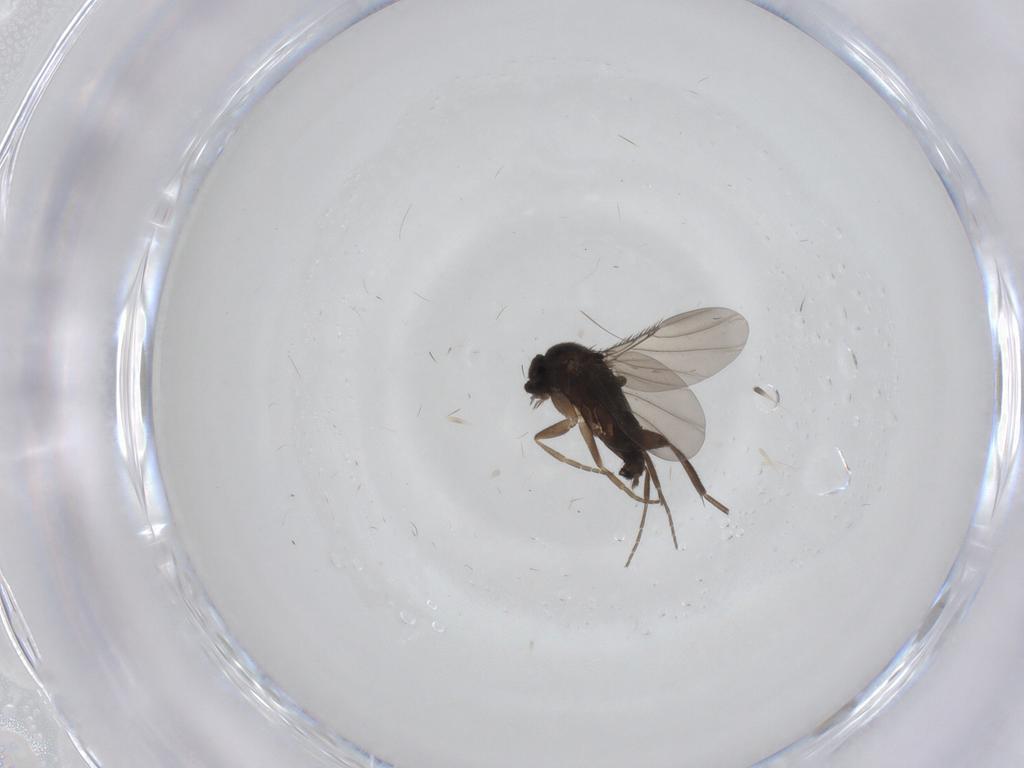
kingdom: Animalia
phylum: Arthropoda
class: Insecta
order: Diptera
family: Phoridae
